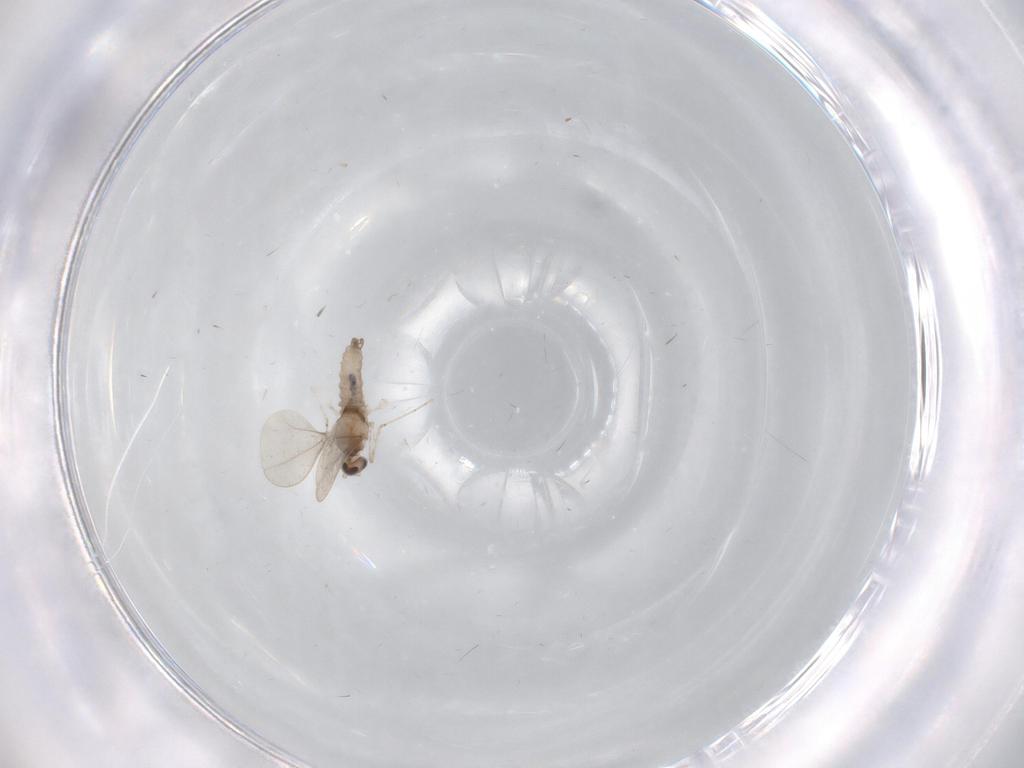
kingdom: Animalia
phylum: Arthropoda
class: Insecta
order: Diptera
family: Cecidomyiidae
